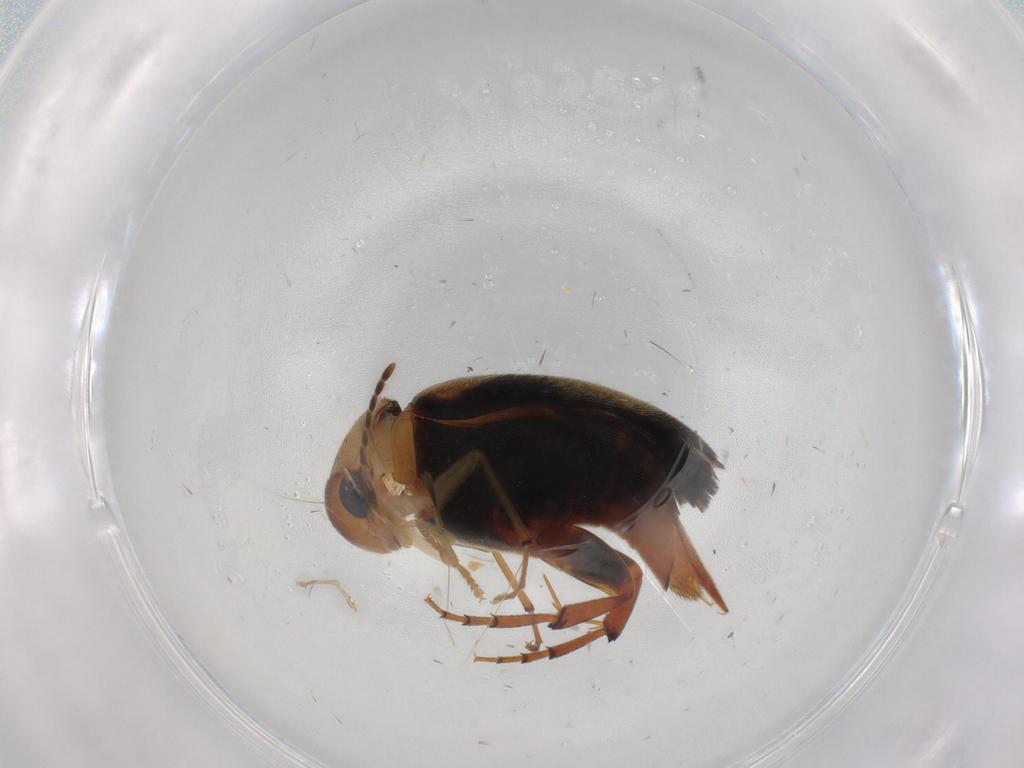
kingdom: Animalia
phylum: Arthropoda
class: Insecta
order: Coleoptera
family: Mordellidae
